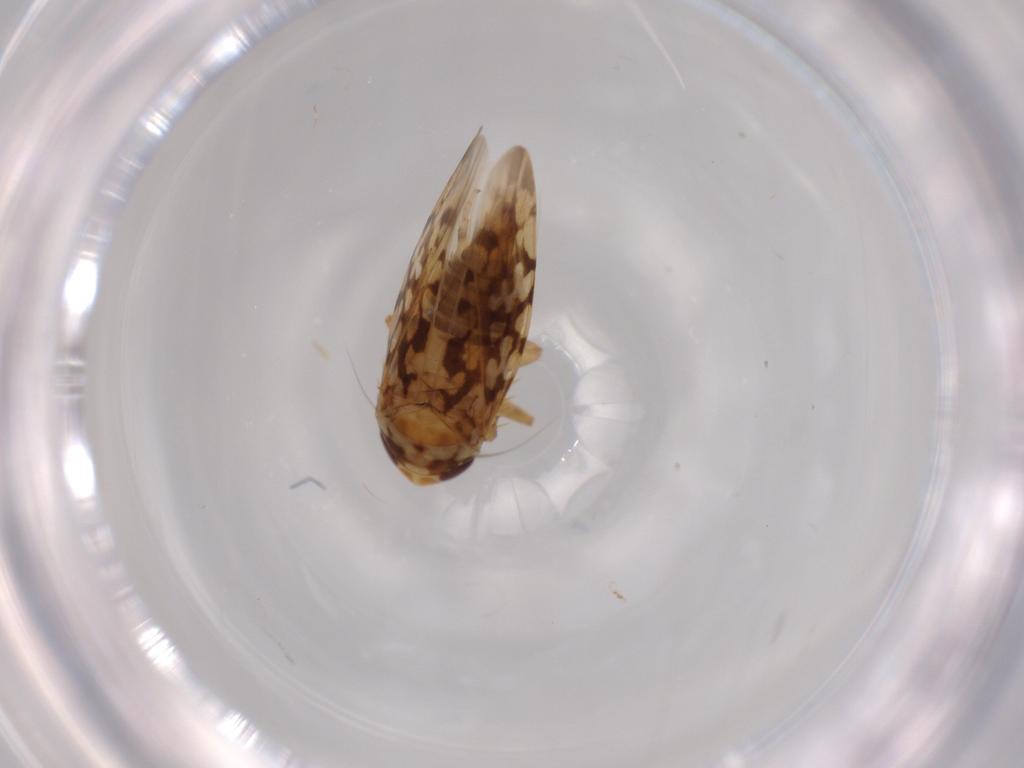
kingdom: Animalia
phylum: Arthropoda
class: Insecta
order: Hemiptera
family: Cicadellidae
